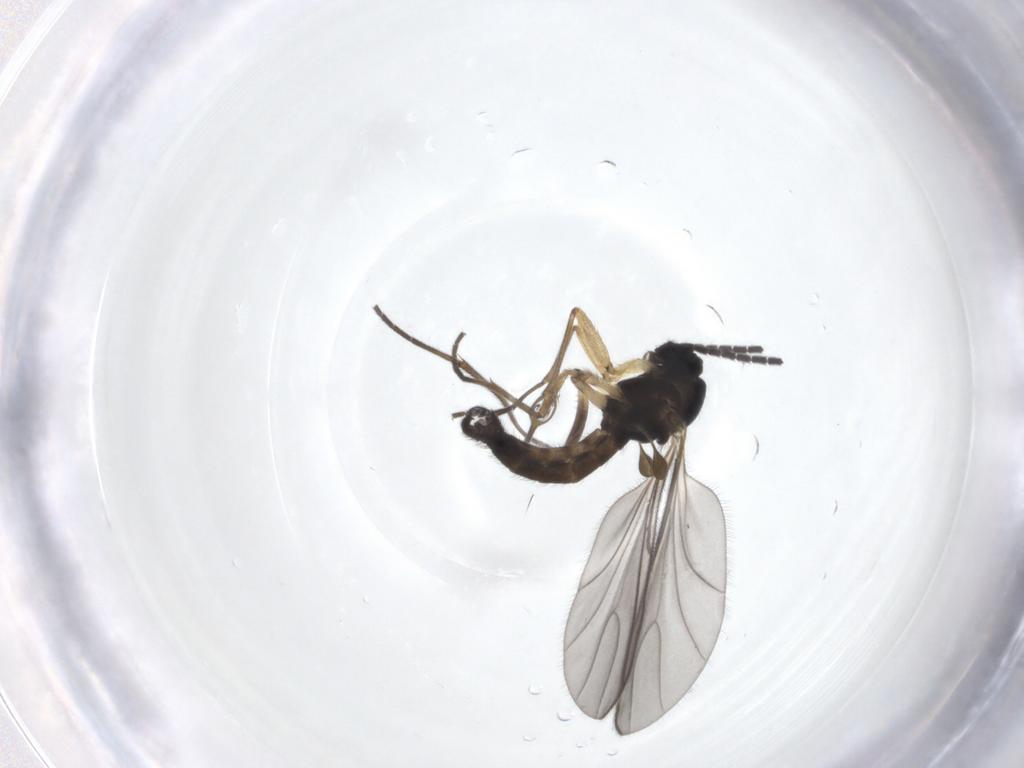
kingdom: Animalia
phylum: Arthropoda
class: Insecta
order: Diptera
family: Sciaridae
